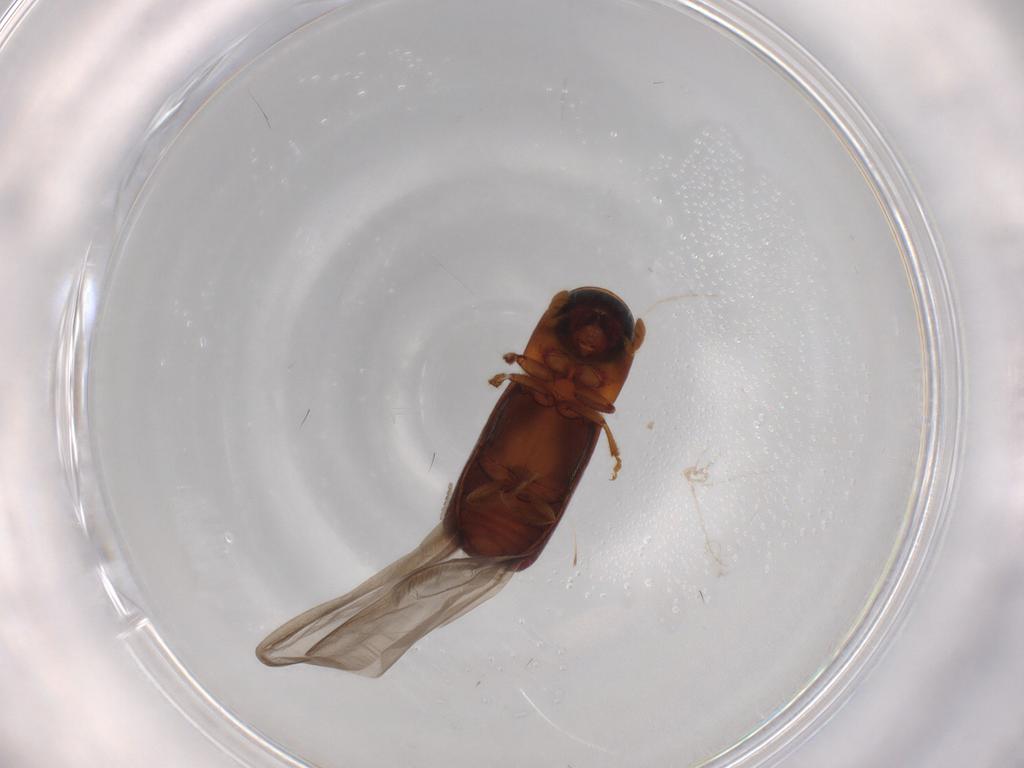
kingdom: Animalia
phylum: Arthropoda
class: Insecta
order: Coleoptera
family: Curculionidae
